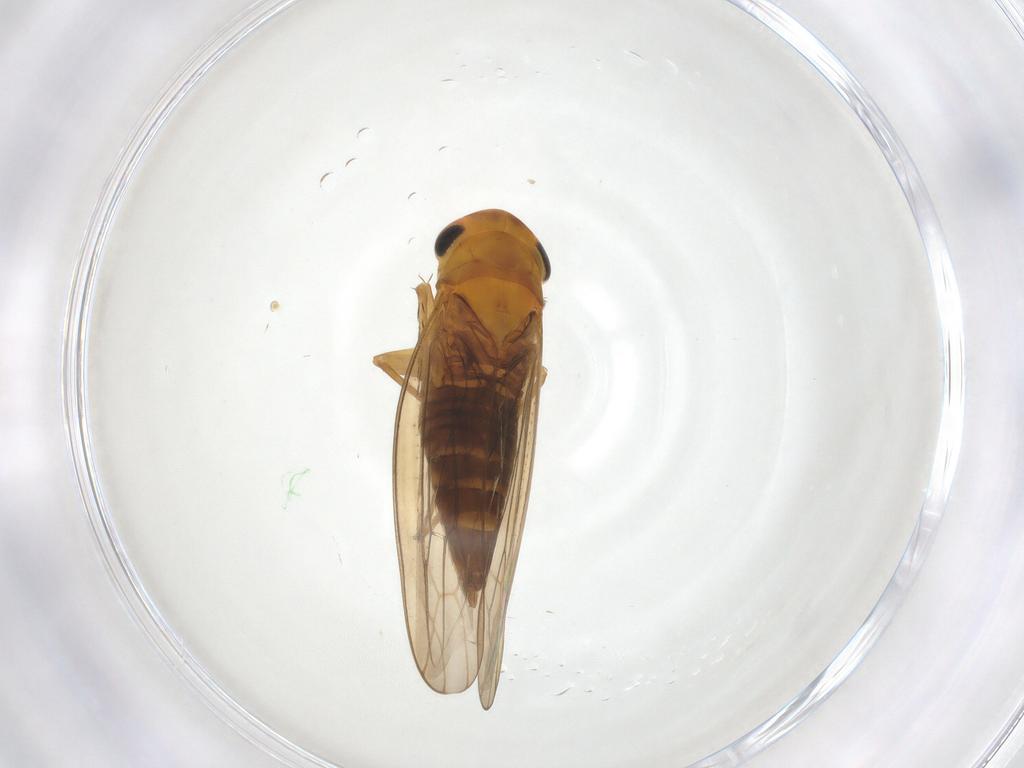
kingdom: Animalia
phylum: Arthropoda
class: Insecta
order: Hemiptera
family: Cicadellidae
